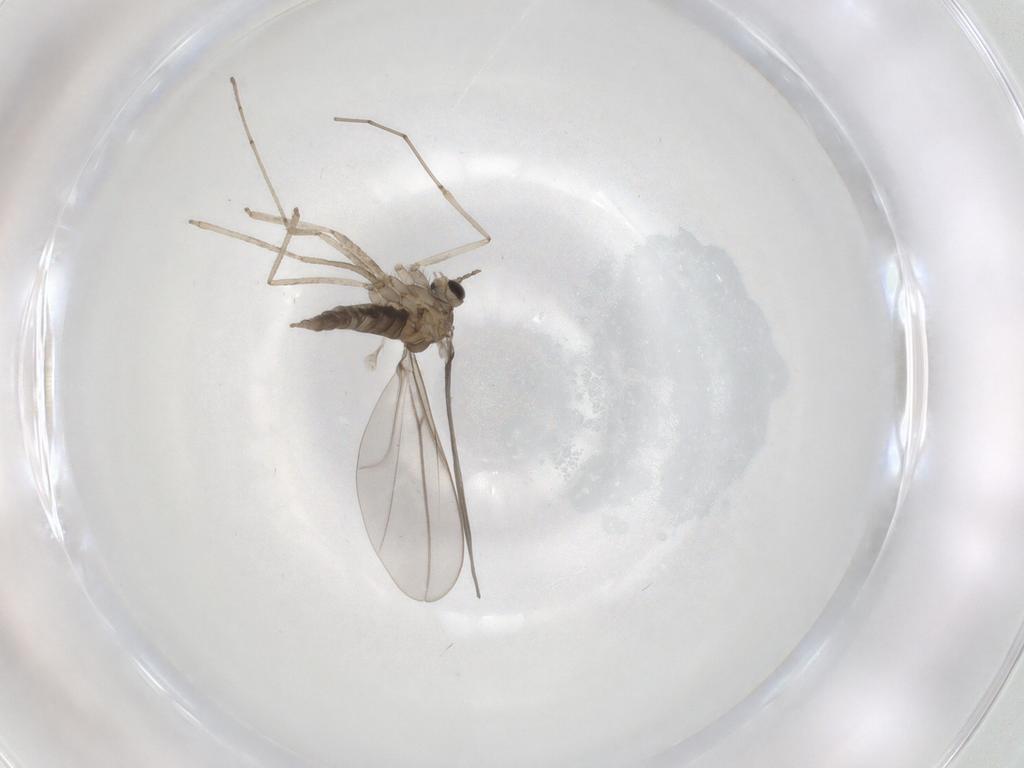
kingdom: Animalia
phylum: Arthropoda
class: Insecta
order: Diptera
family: Cecidomyiidae
